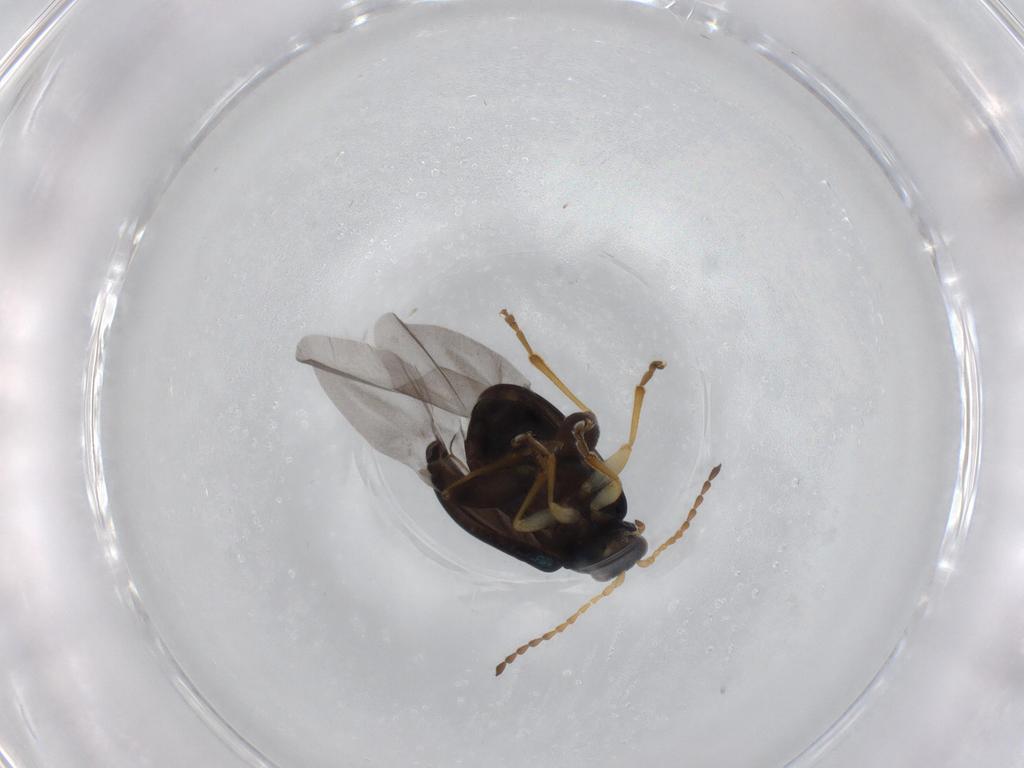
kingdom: Animalia
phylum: Arthropoda
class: Insecta
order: Coleoptera
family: Chrysomelidae
